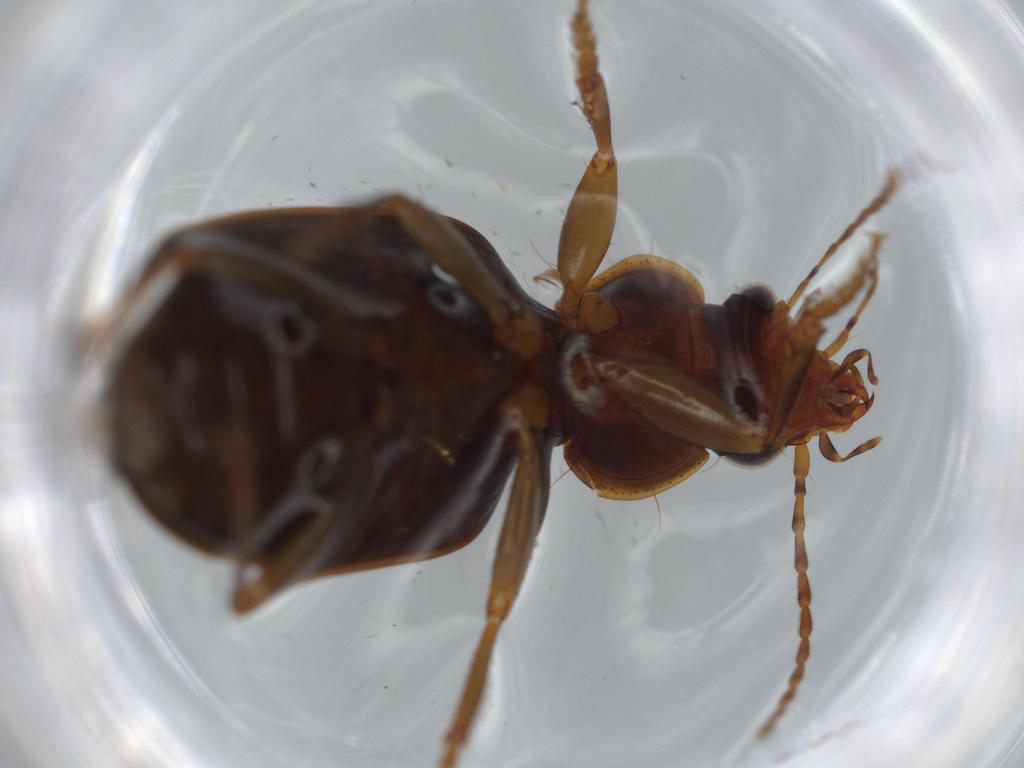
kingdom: Animalia
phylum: Arthropoda
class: Insecta
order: Coleoptera
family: Carabidae
